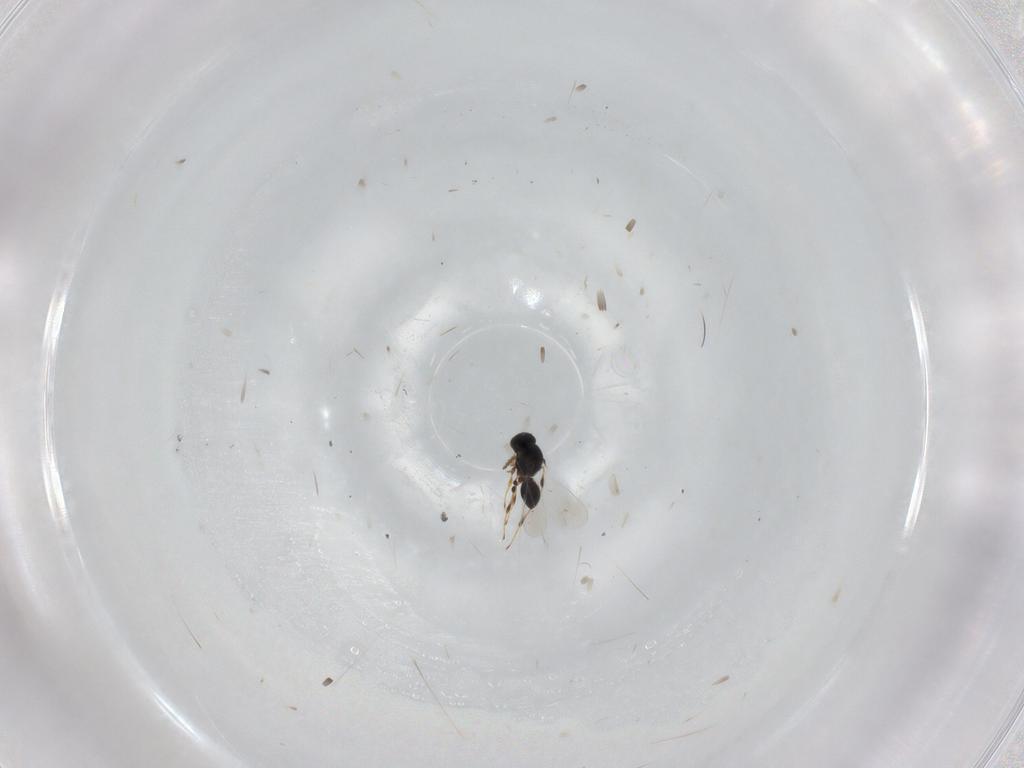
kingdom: Animalia
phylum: Arthropoda
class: Insecta
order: Hymenoptera
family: Platygastridae
